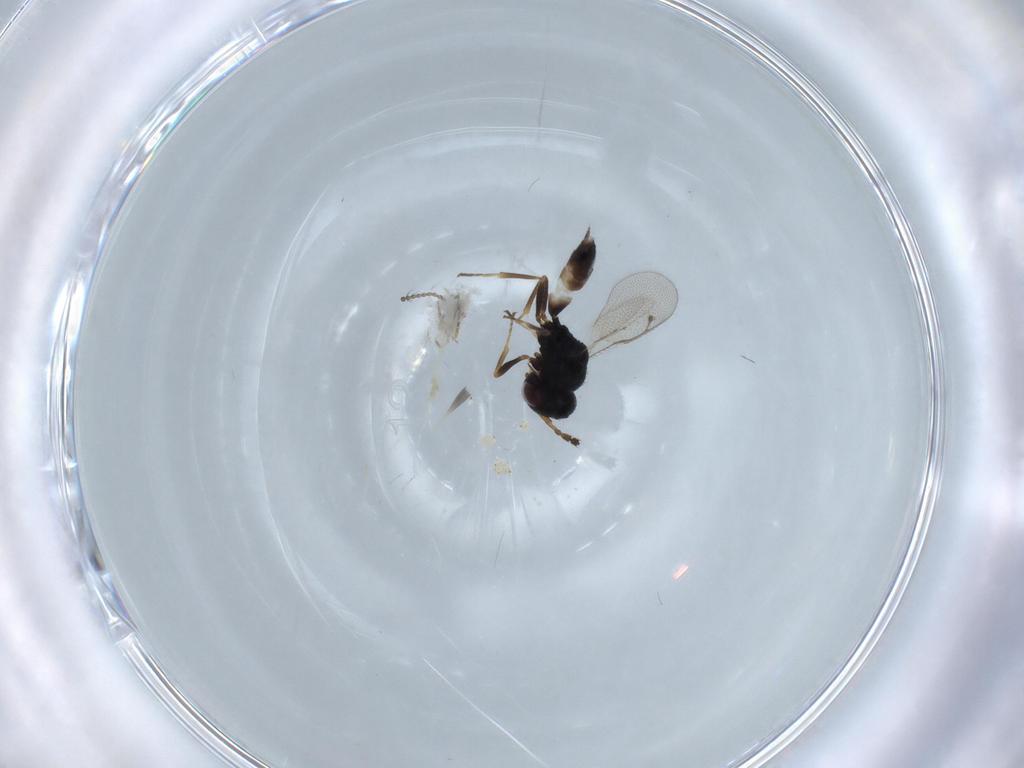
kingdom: Animalia
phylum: Arthropoda
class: Insecta
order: Hymenoptera
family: Agaonidae
